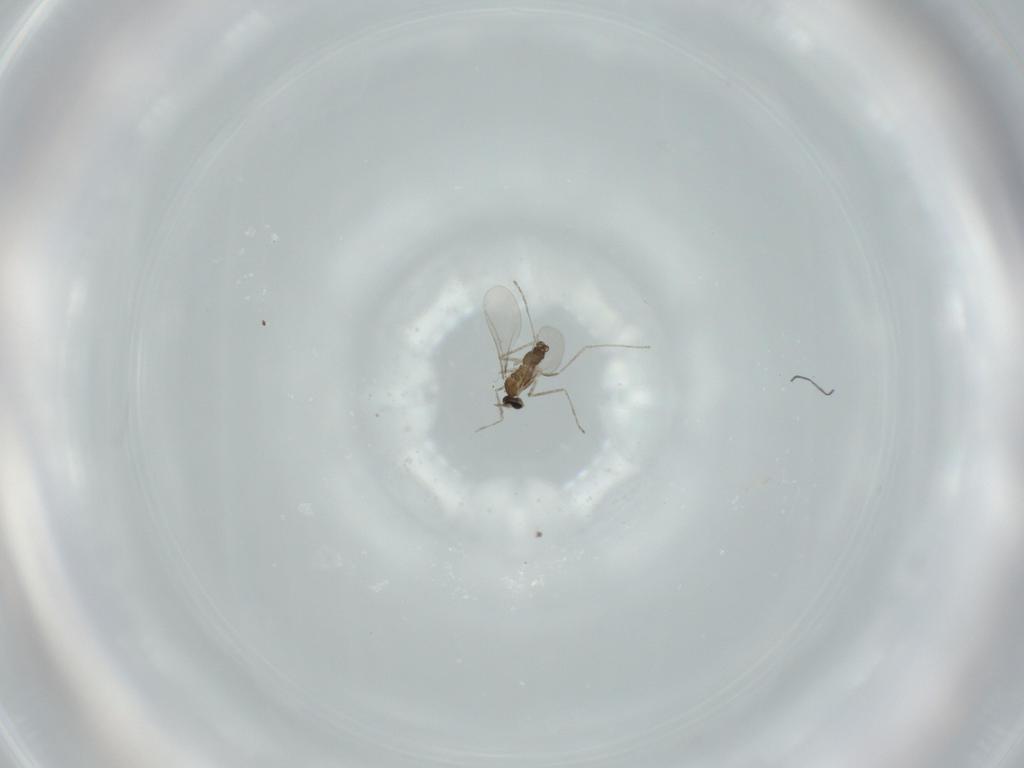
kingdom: Animalia
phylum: Arthropoda
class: Insecta
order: Diptera
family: Cecidomyiidae
